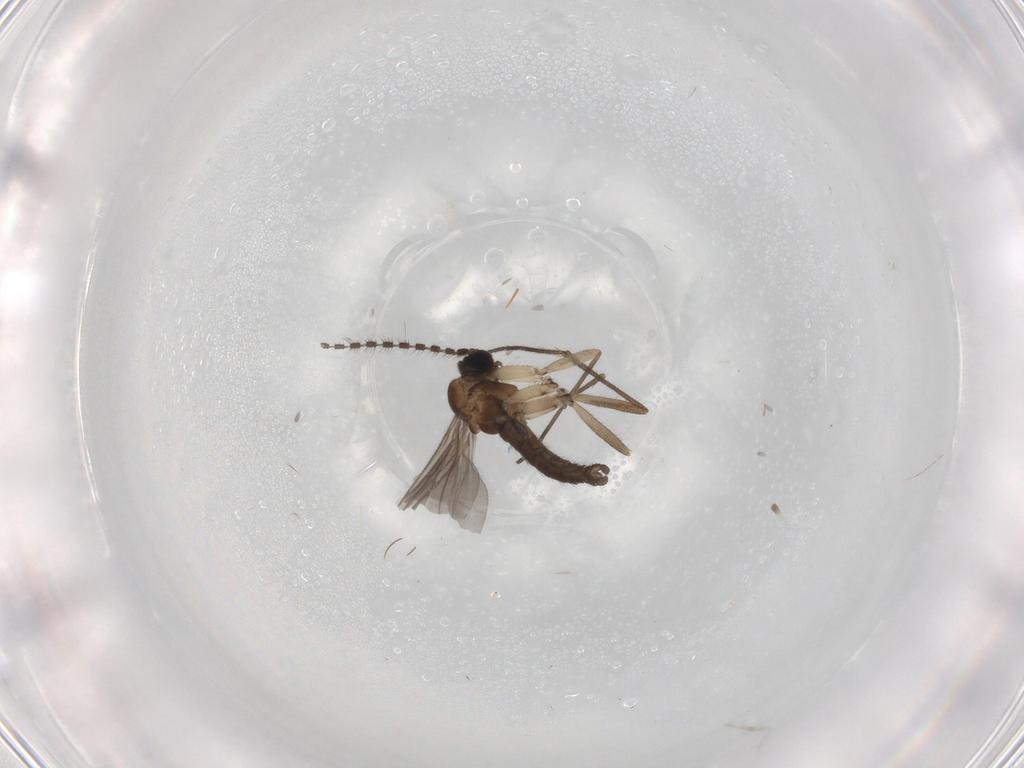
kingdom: Animalia
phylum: Arthropoda
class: Insecta
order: Diptera
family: Sciaridae
